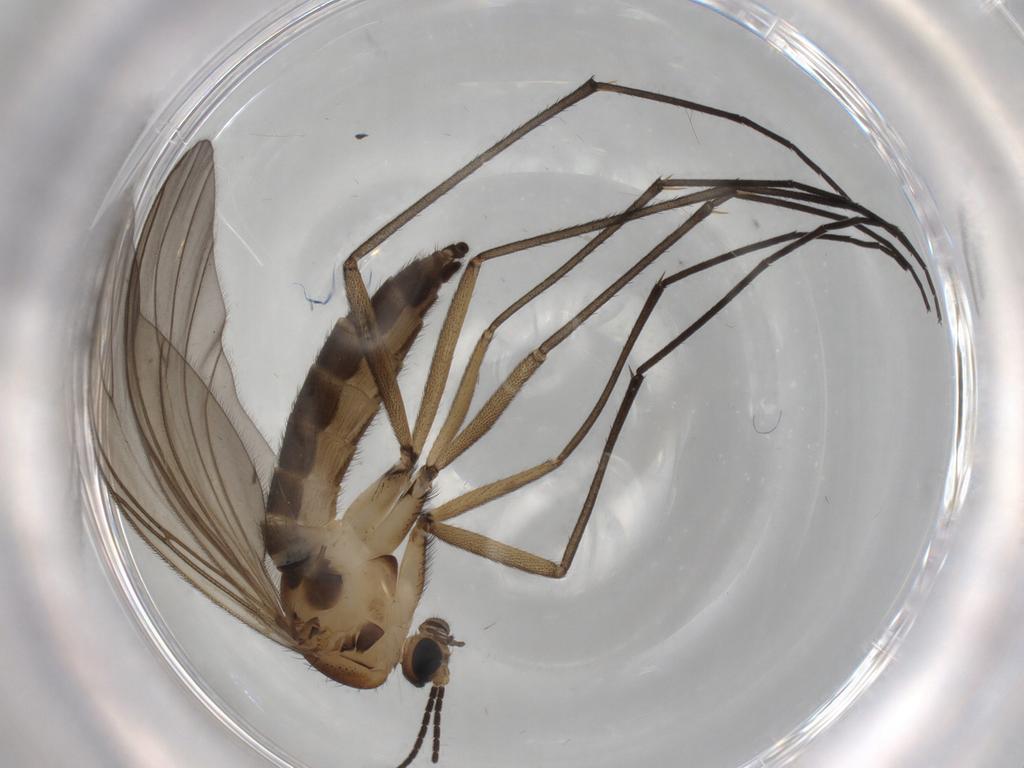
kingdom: Animalia
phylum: Arthropoda
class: Insecta
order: Diptera
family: Sciaridae
